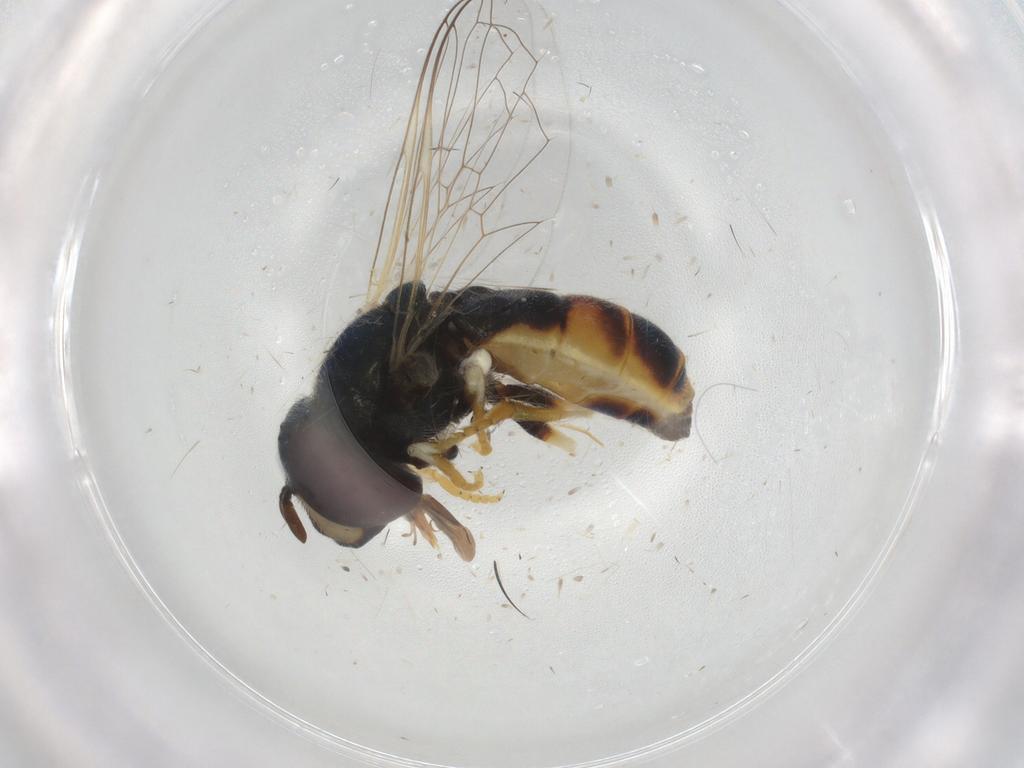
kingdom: Animalia
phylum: Arthropoda
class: Insecta
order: Diptera
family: Syrphidae
